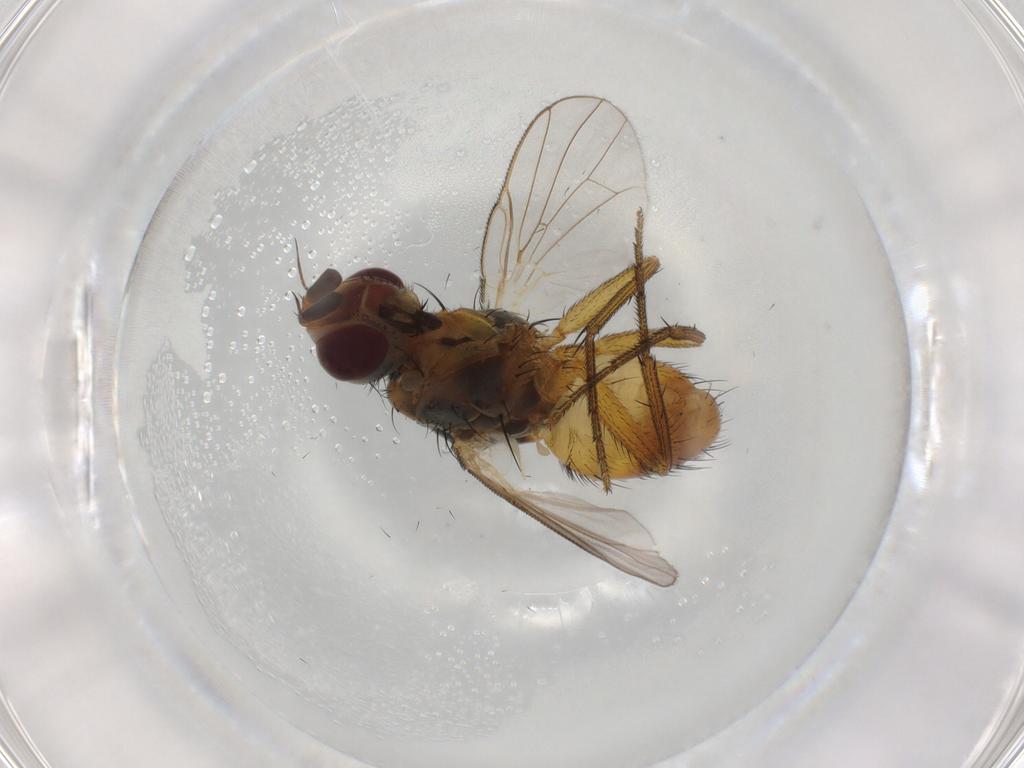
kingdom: Animalia
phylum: Arthropoda
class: Insecta
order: Diptera
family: Muscidae
